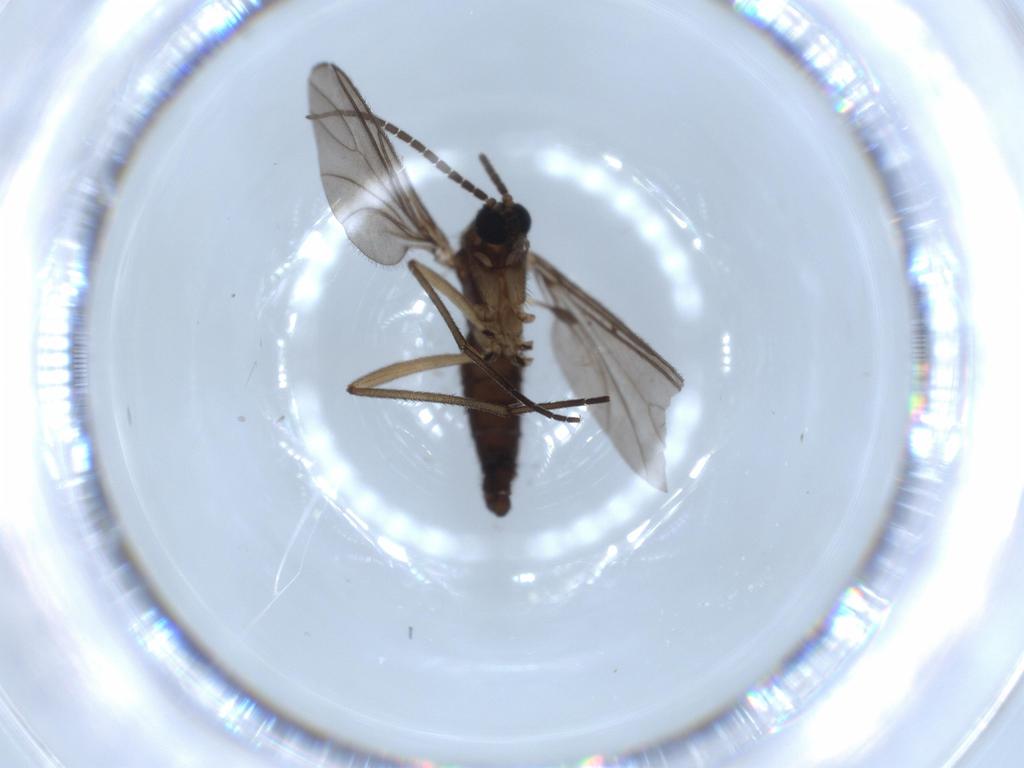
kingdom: Animalia
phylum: Arthropoda
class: Insecta
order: Diptera
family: Sciaridae
